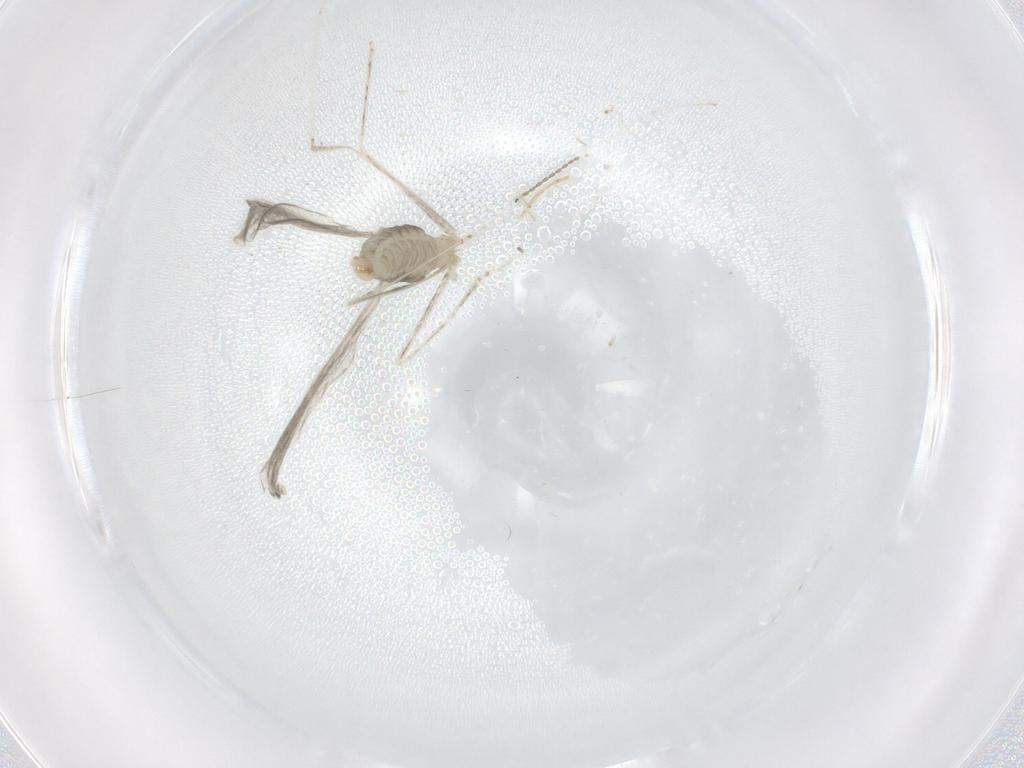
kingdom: Animalia
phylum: Arthropoda
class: Insecta
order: Diptera
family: Cecidomyiidae
